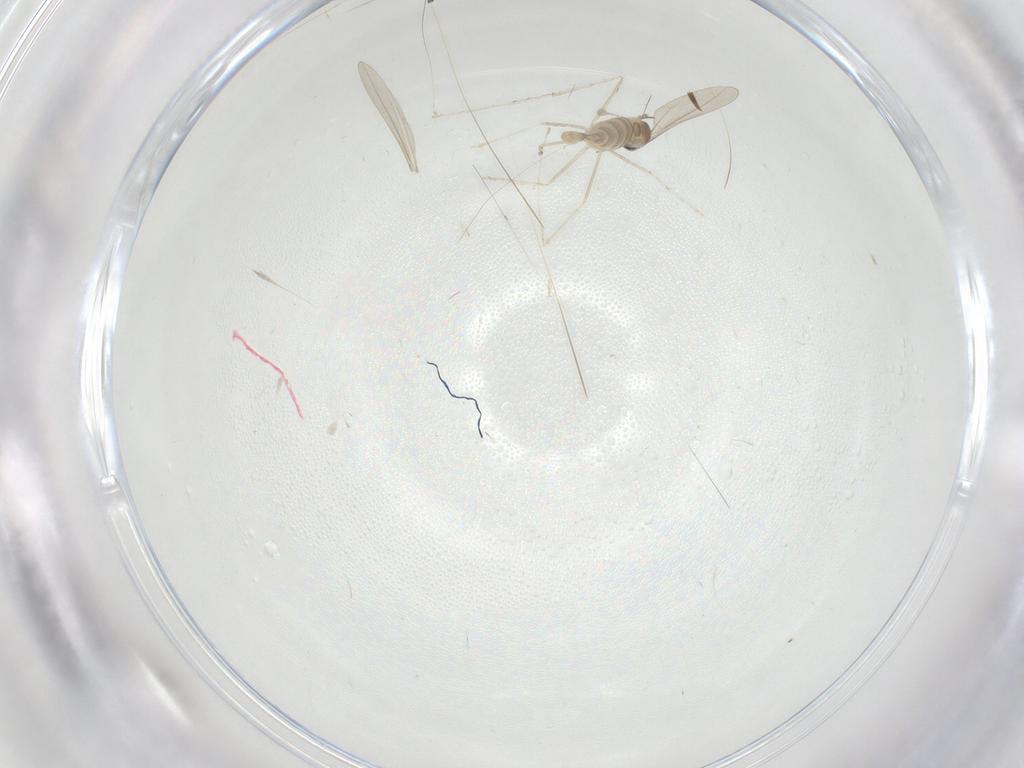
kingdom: Animalia
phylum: Arthropoda
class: Insecta
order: Diptera
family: Cecidomyiidae
